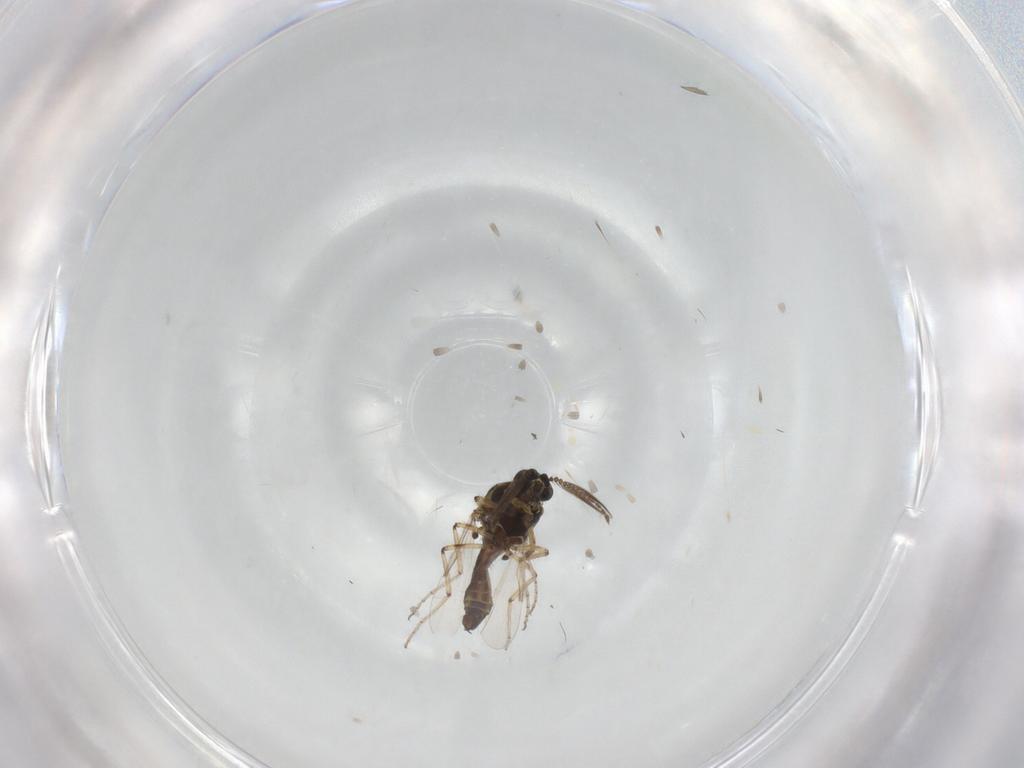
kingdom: Animalia
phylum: Arthropoda
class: Insecta
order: Diptera
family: Ceratopogonidae
